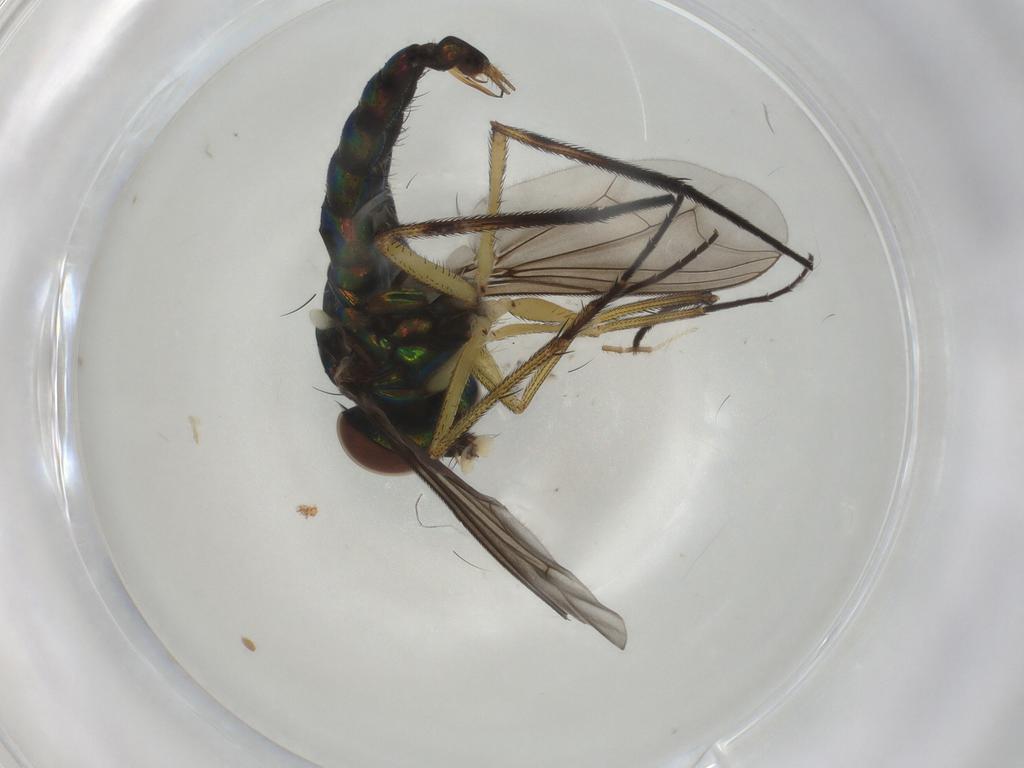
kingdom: Animalia
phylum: Arthropoda
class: Insecta
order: Diptera
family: Dolichopodidae
